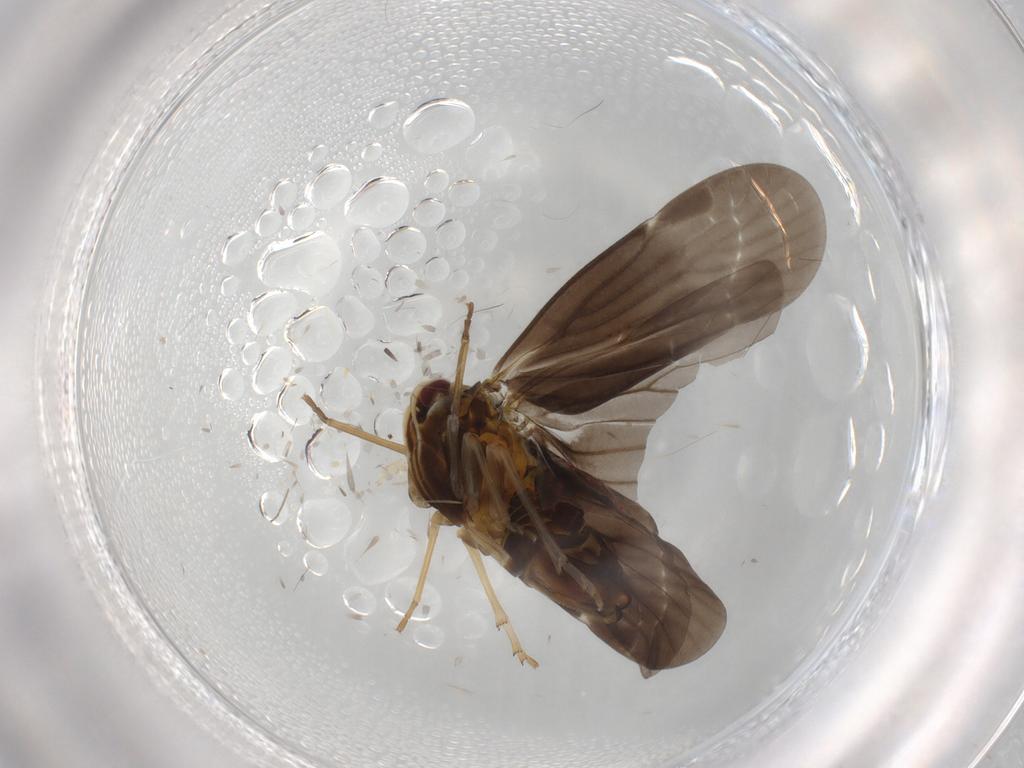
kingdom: Animalia
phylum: Arthropoda
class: Insecta
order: Hemiptera
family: Derbidae
